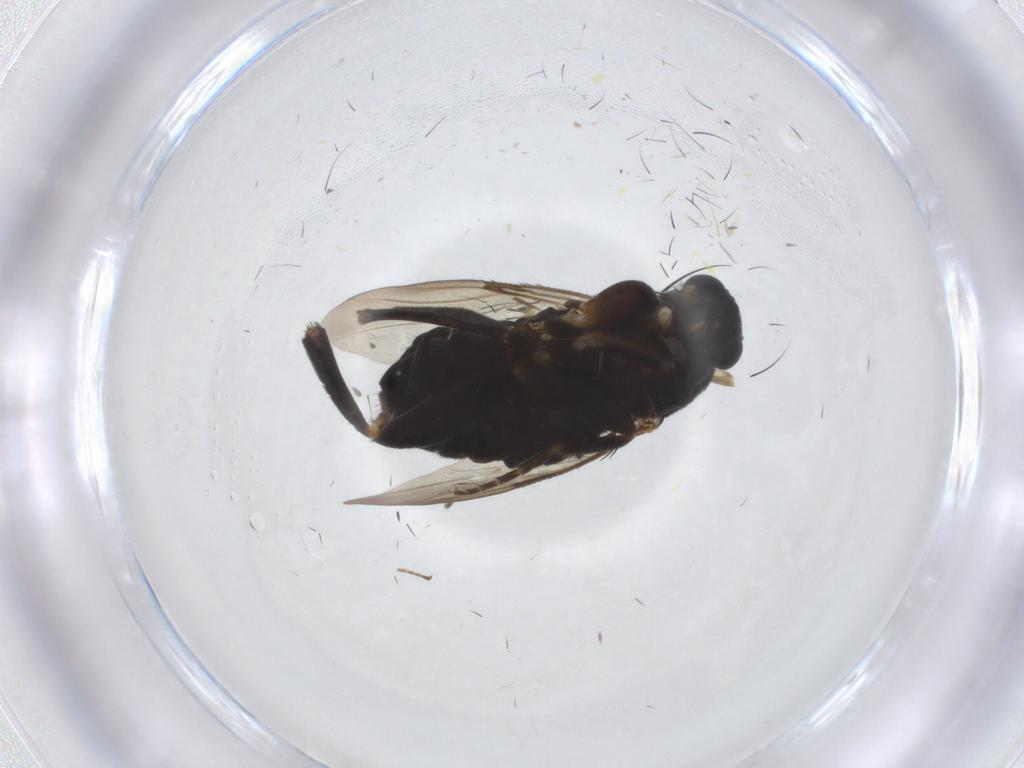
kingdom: Animalia
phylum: Arthropoda
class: Insecta
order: Diptera
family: Phoridae
